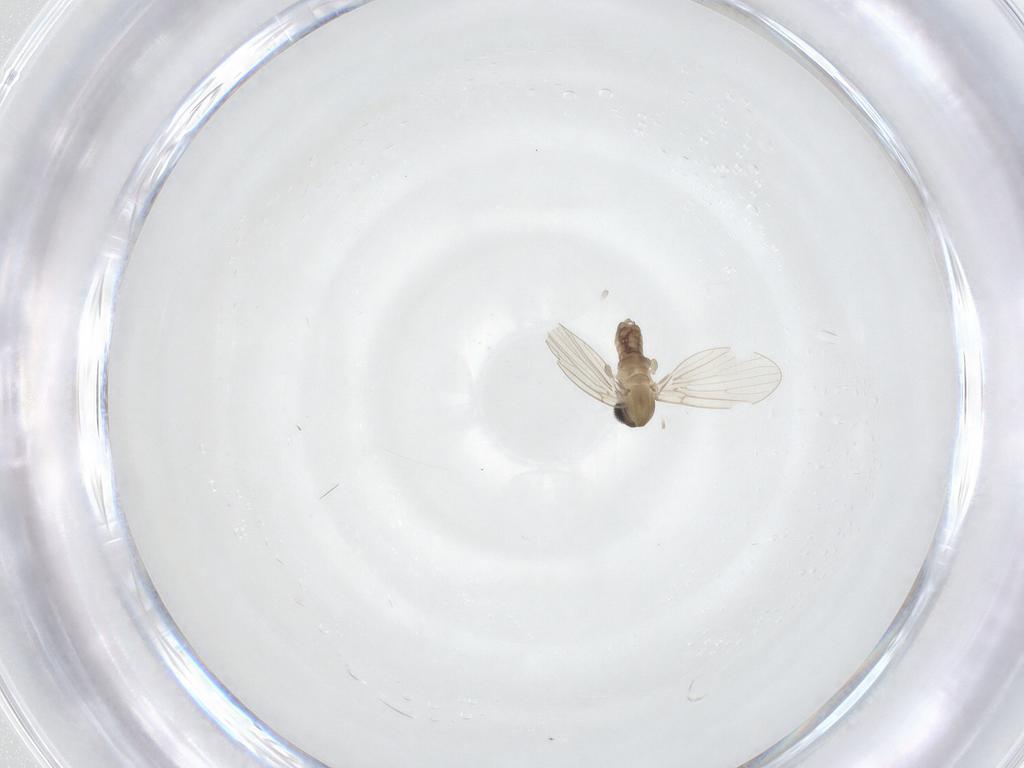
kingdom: Animalia
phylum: Arthropoda
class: Insecta
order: Diptera
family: Psychodidae
